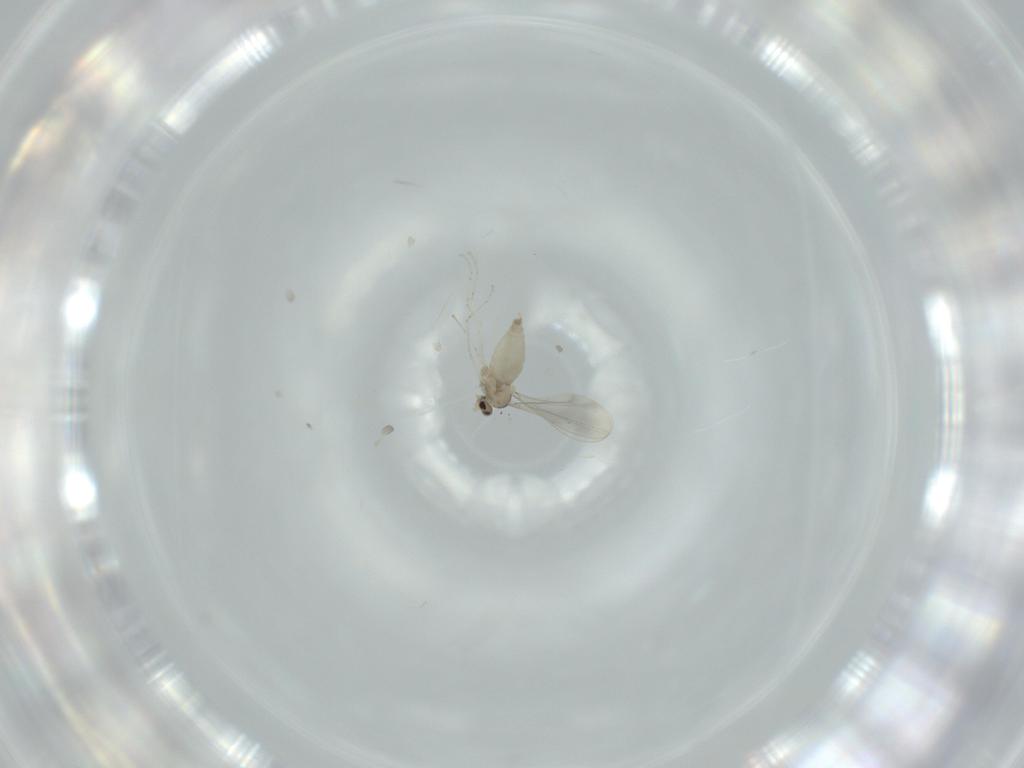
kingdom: Animalia
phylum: Arthropoda
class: Insecta
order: Diptera
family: Cecidomyiidae
